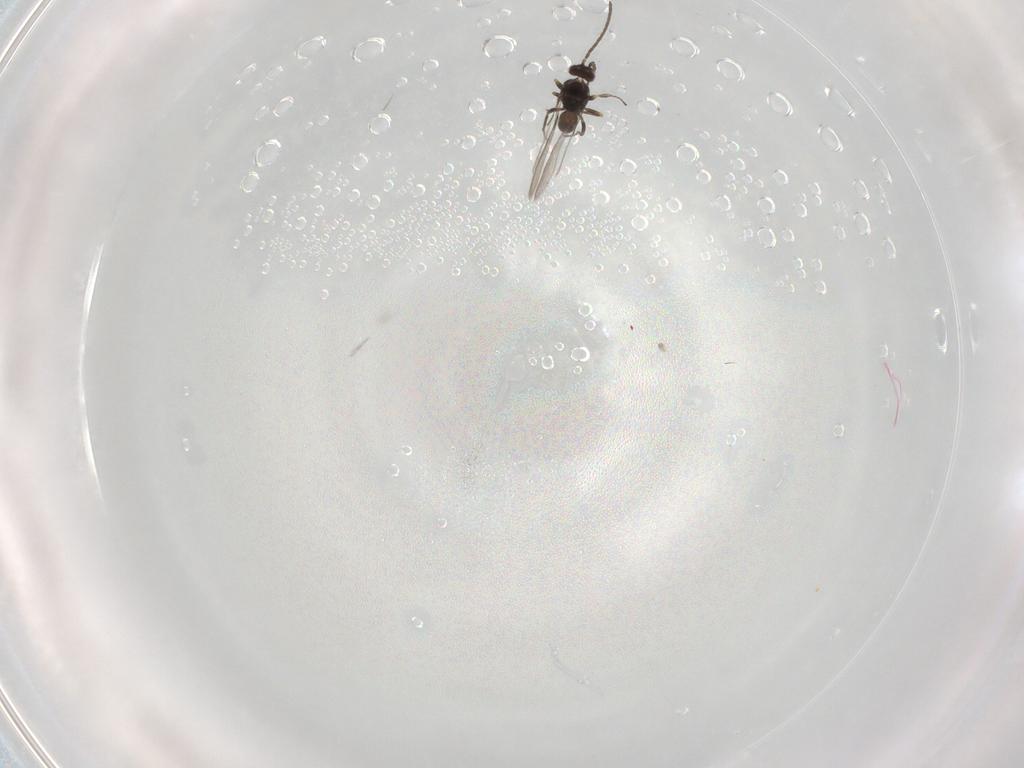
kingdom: Animalia
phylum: Arthropoda
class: Insecta
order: Hymenoptera
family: Mymaridae
